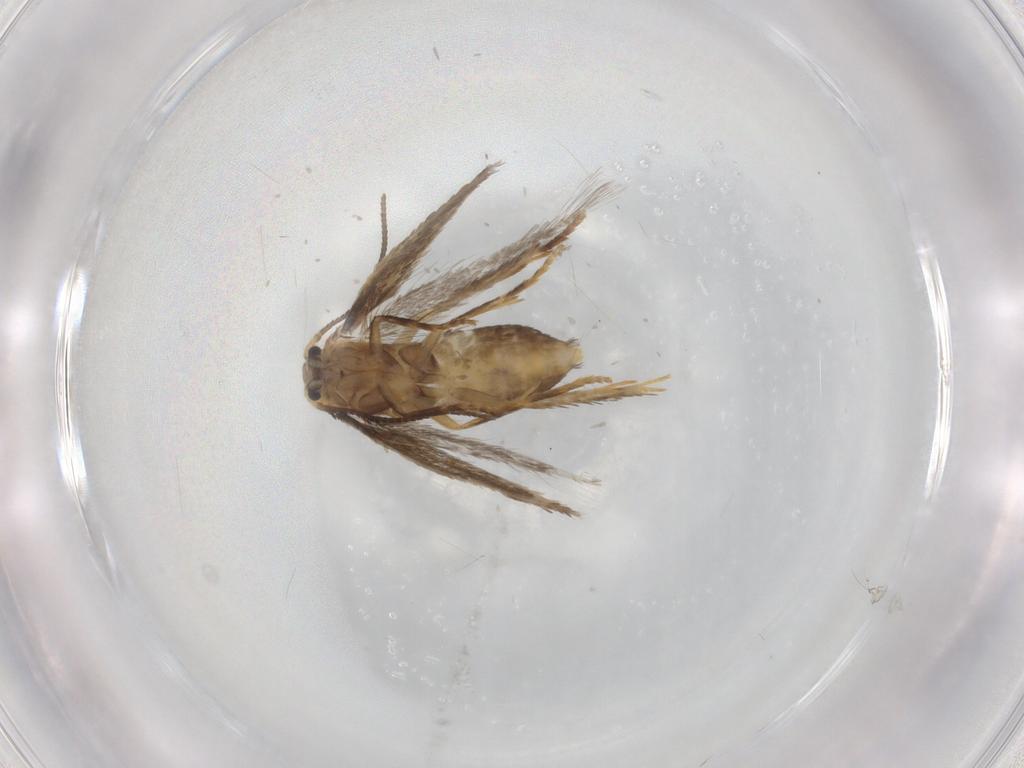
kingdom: Animalia
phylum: Arthropoda
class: Insecta
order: Lepidoptera
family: Nepticulidae
